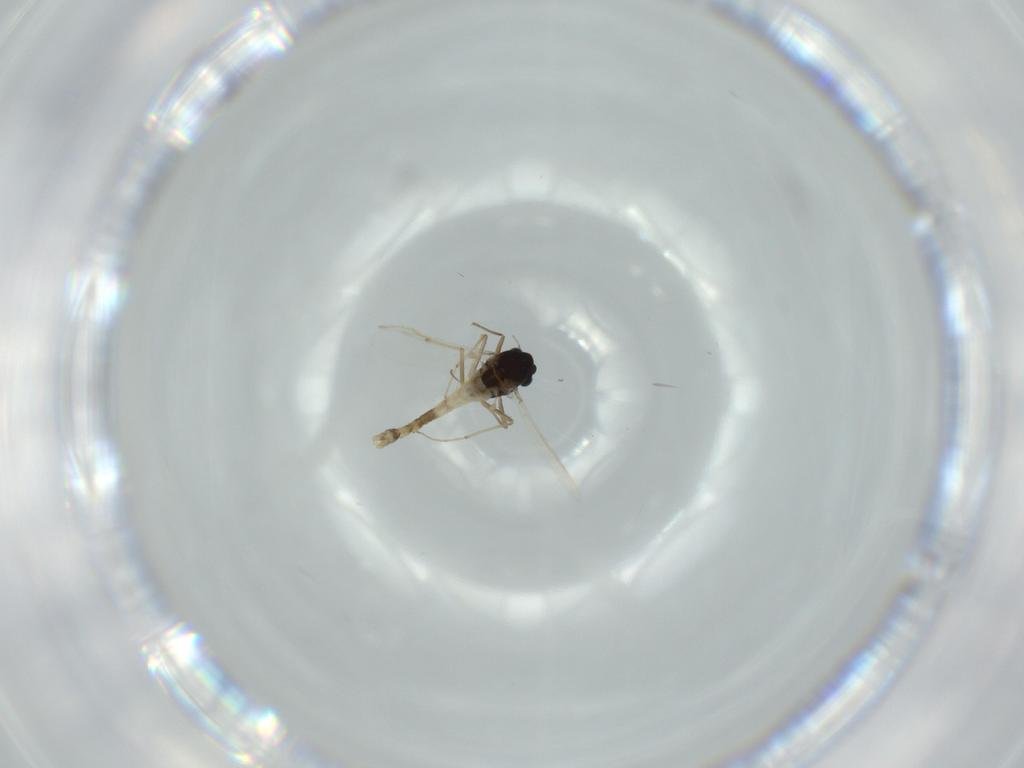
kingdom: Animalia
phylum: Arthropoda
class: Insecta
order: Diptera
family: Chironomidae
